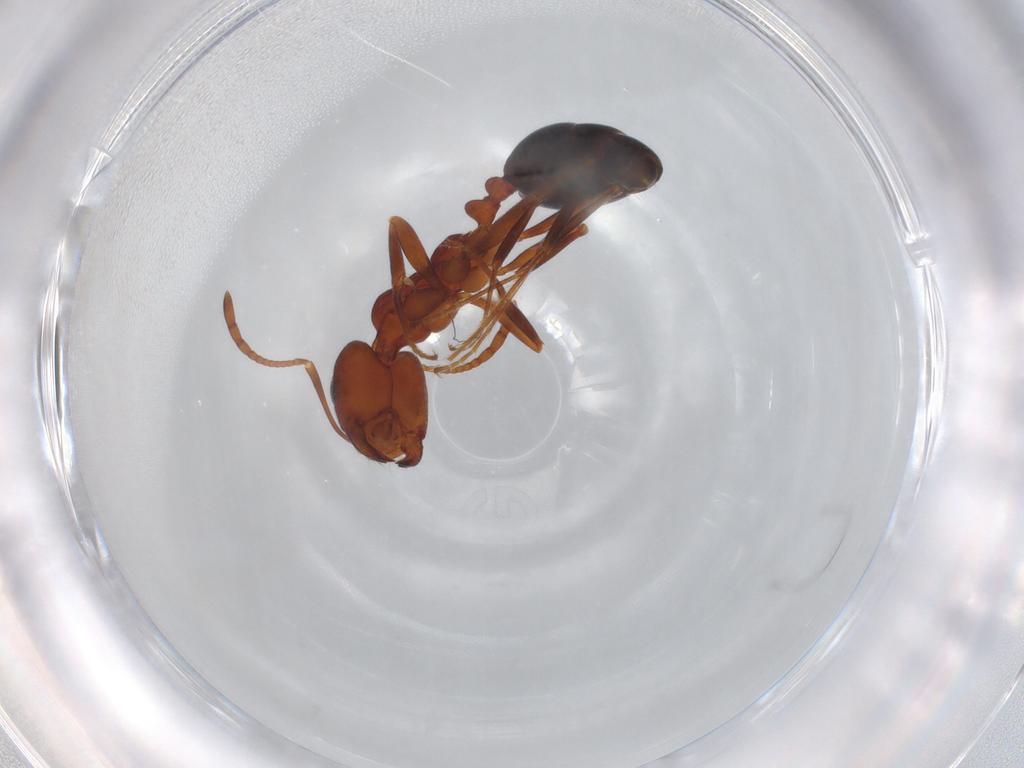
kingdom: Animalia
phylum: Arthropoda
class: Insecta
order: Hymenoptera
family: Formicidae
